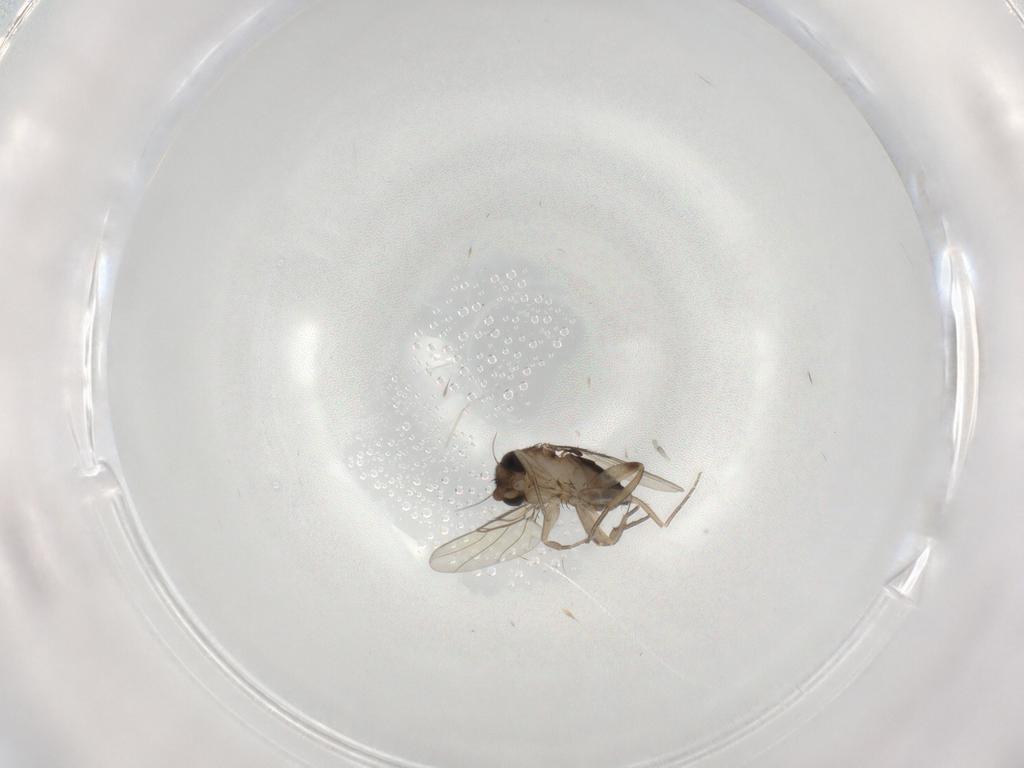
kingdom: Animalia
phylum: Arthropoda
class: Insecta
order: Diptera
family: Phoridae
